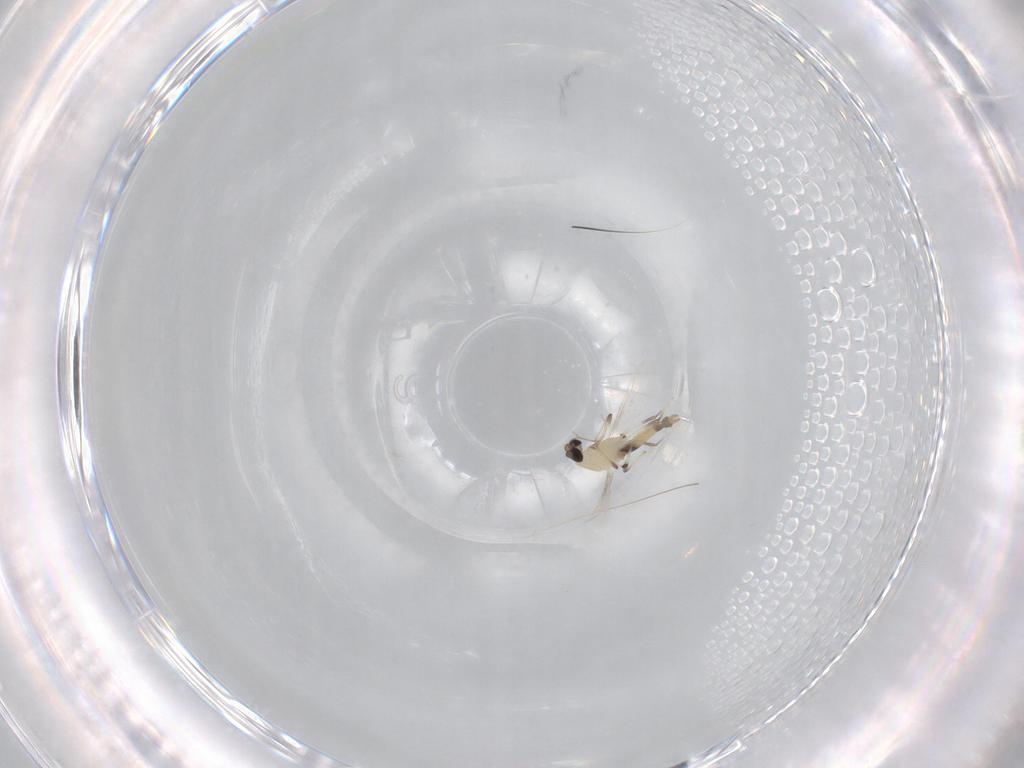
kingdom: Animalia
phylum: Arthropoda
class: Insecta
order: Diptera
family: Chironomidae
